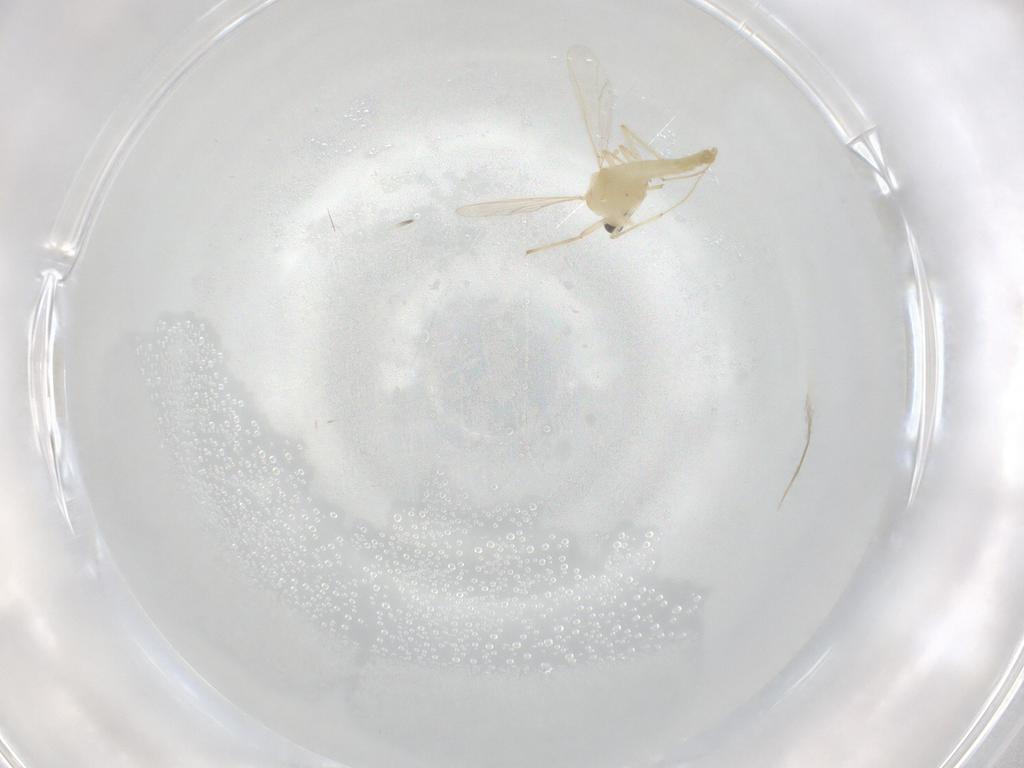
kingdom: Animalia
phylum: Arthropoda
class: Insecta
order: Diptera
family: Chironomidae
